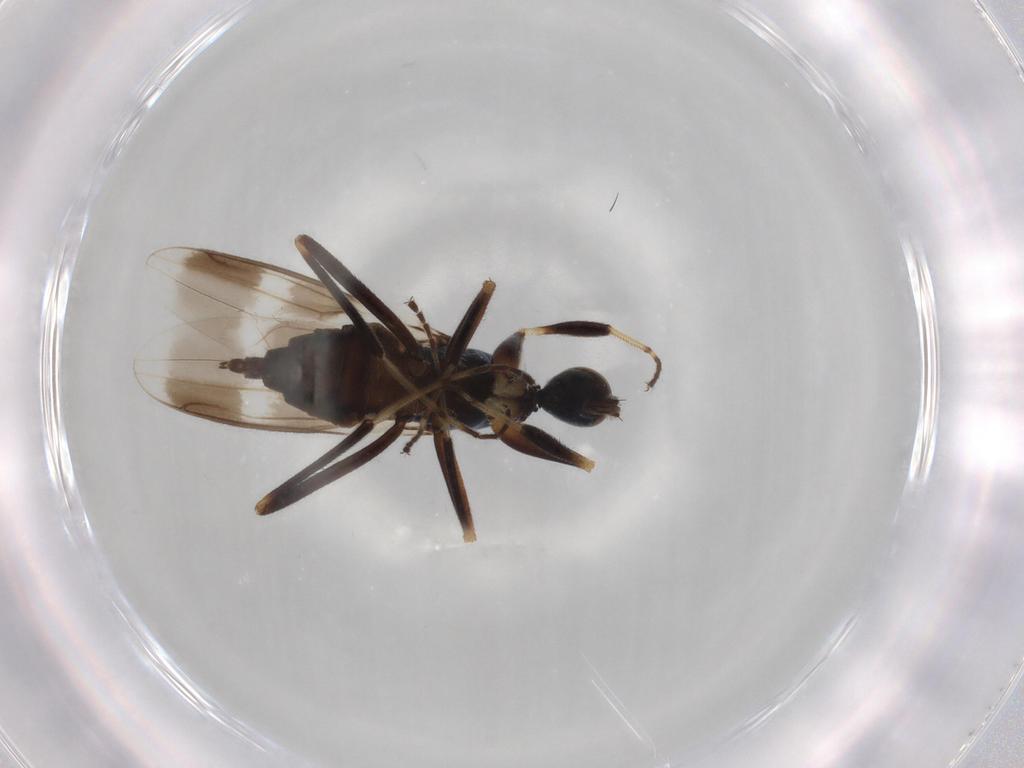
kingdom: Animalia
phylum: Arthropoda
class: Insecta
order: Diptera
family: Hybotidae
